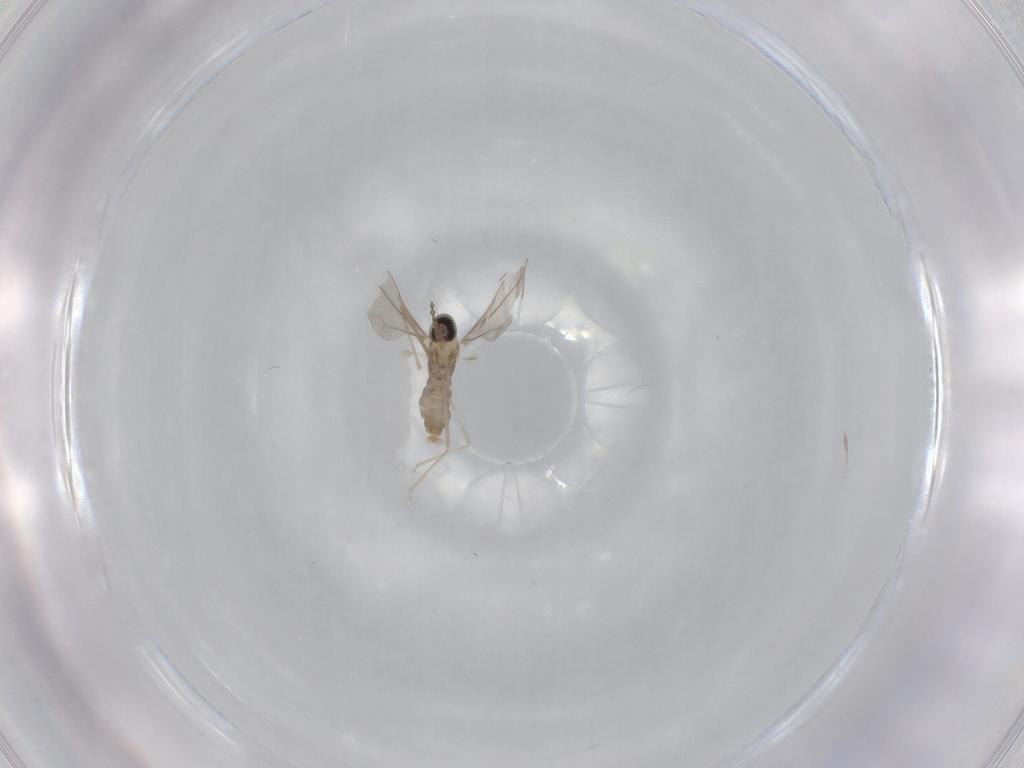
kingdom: Animalia
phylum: Arthropoda
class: Insecta
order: Diptera
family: Cecidomyiidae
